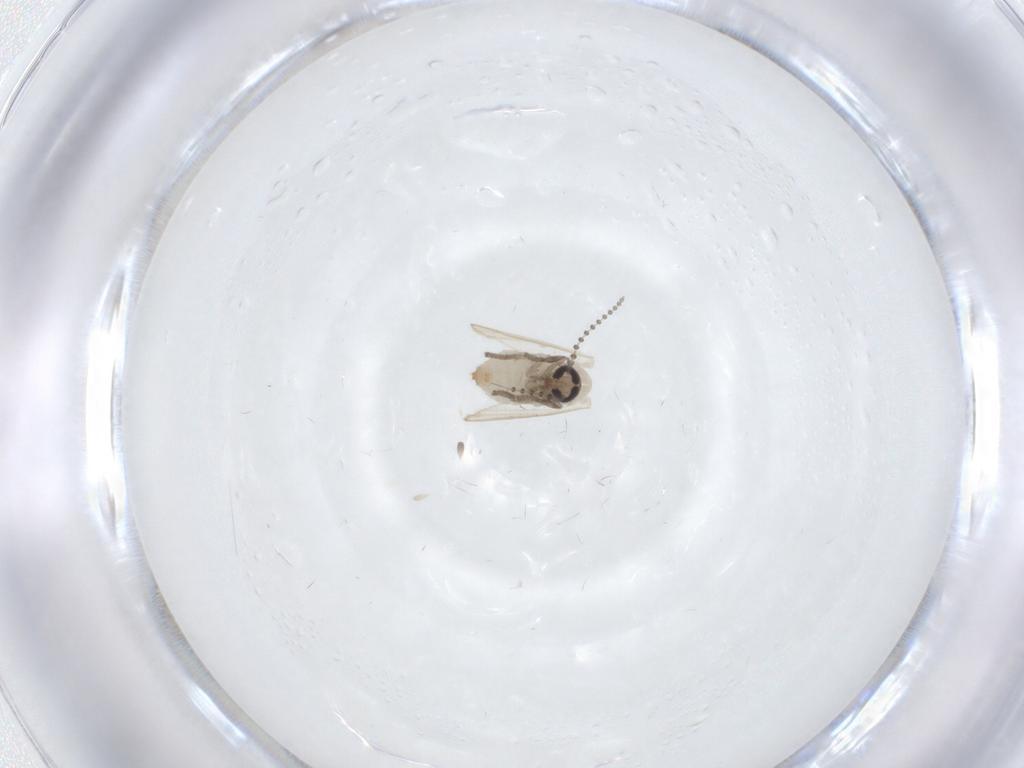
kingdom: Animalia
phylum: Arthropoda
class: Insecta
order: Diptera
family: Psychodidae
